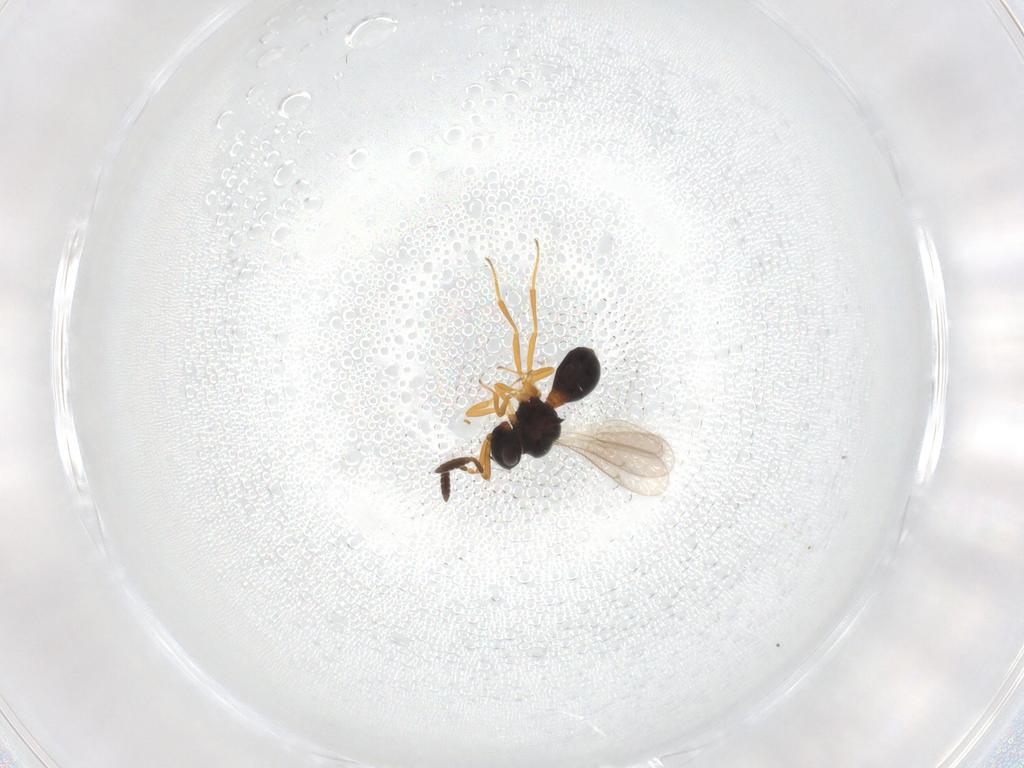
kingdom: Animalia
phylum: Arthropoda
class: Insecta
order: Hymenoptera
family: Scelionidae
